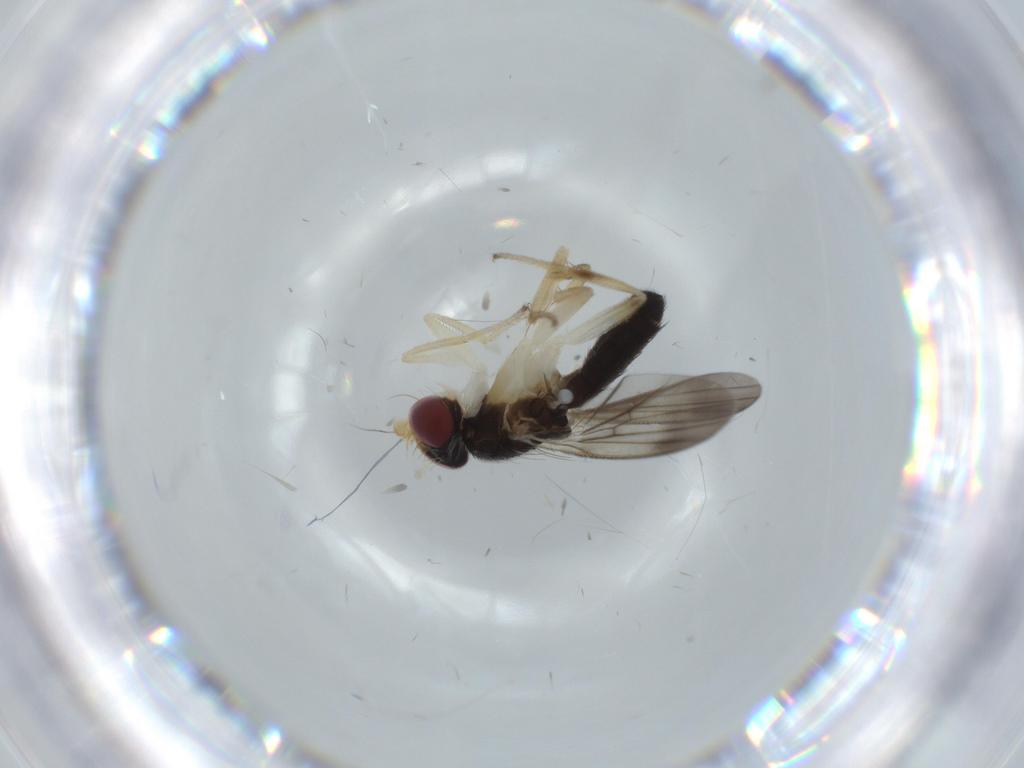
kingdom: Animalia
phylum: Arthropoda
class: Insecta
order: Diptera
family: Clusiidae
